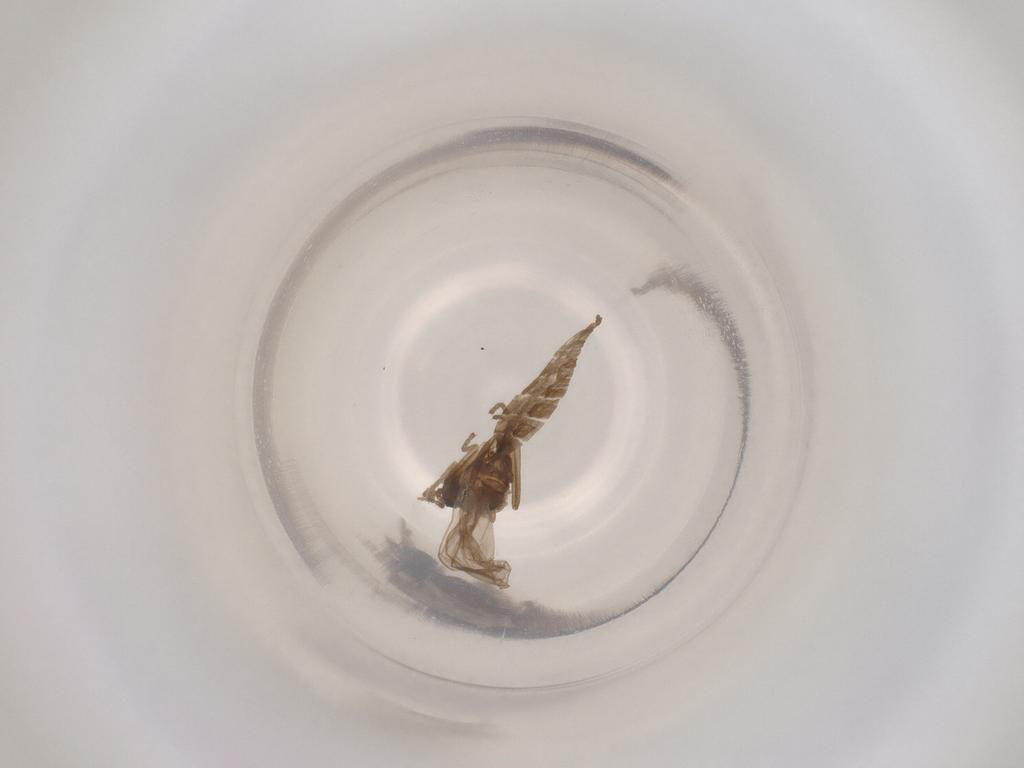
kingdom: Animalia
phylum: Arthropoda
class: Insecta
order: Diptera
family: Cecidomyiidae
